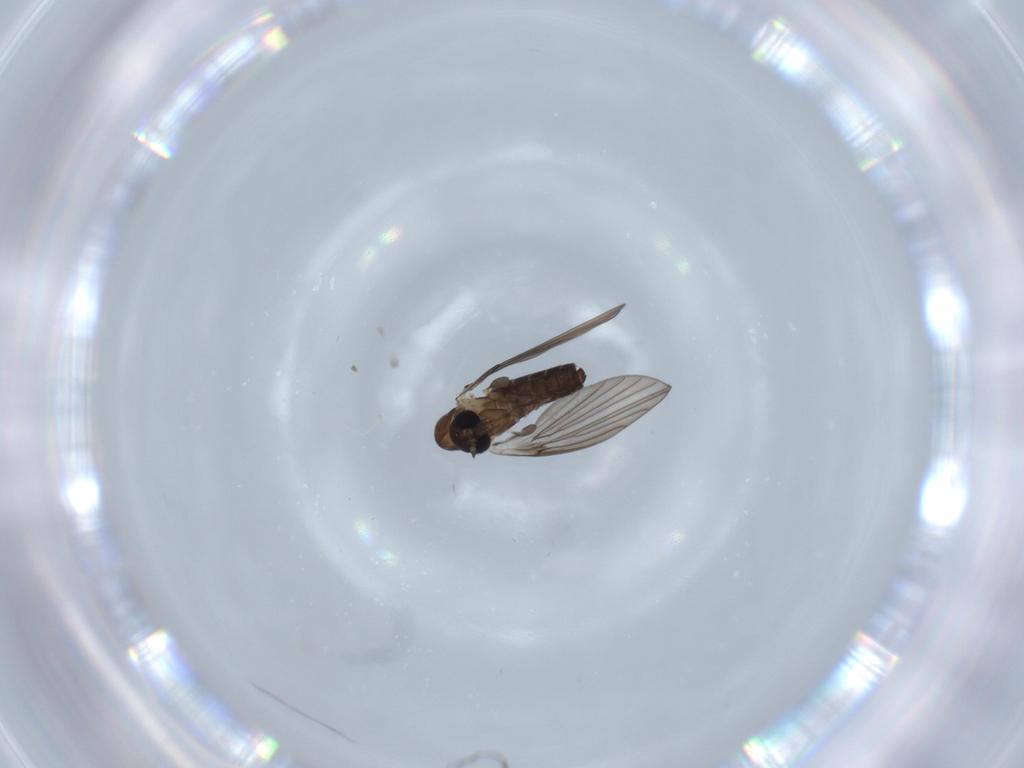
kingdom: Animalia
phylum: Arthropoda
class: Insecta
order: Diptera
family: Psychodidae
